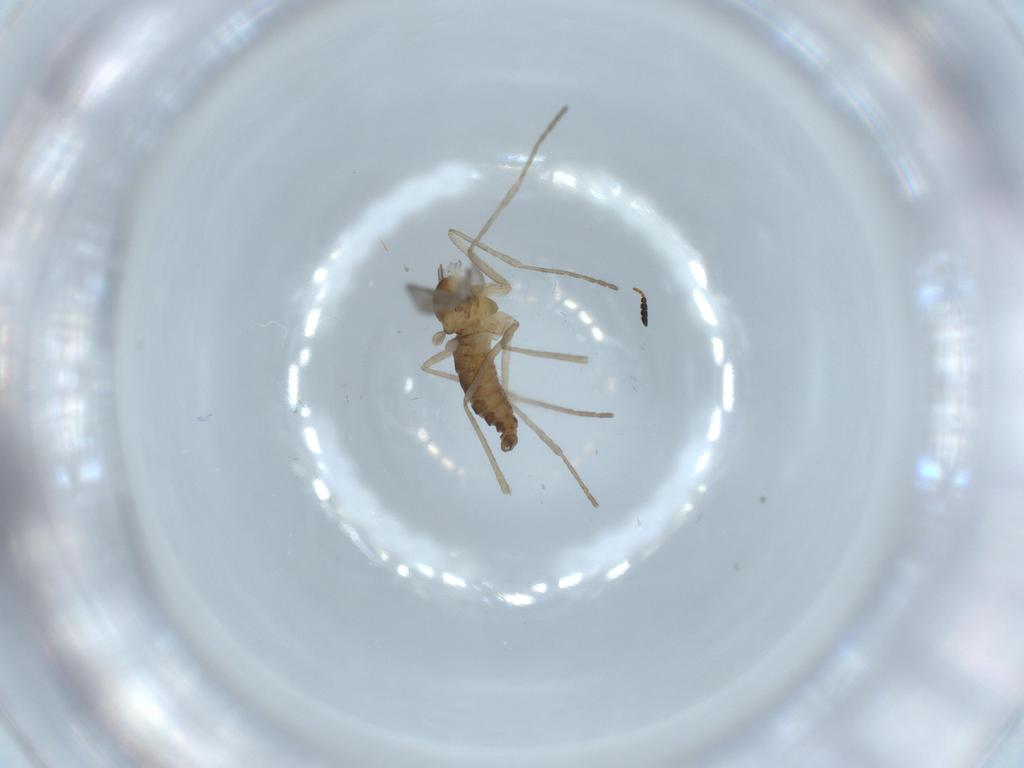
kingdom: Animalia
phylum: Arthropoda
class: Insecta
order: Diptera
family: Cecidomyiidae
